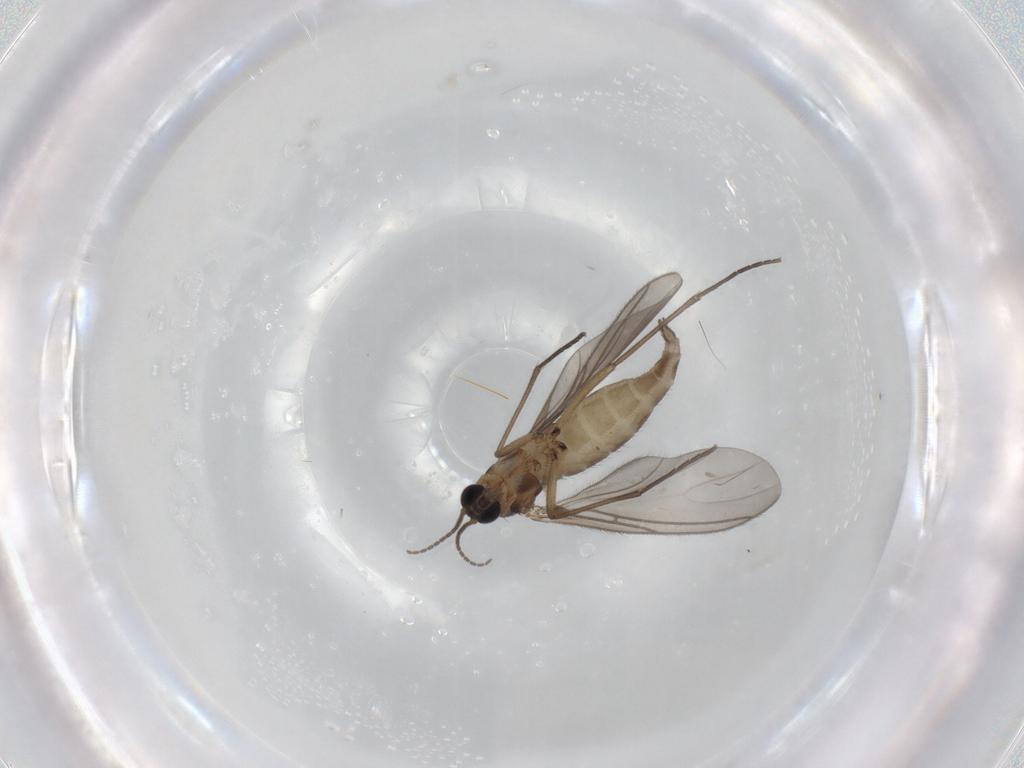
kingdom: Animalia
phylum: Arthropoda
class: Insecta
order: Diptera
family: Sciaridae
